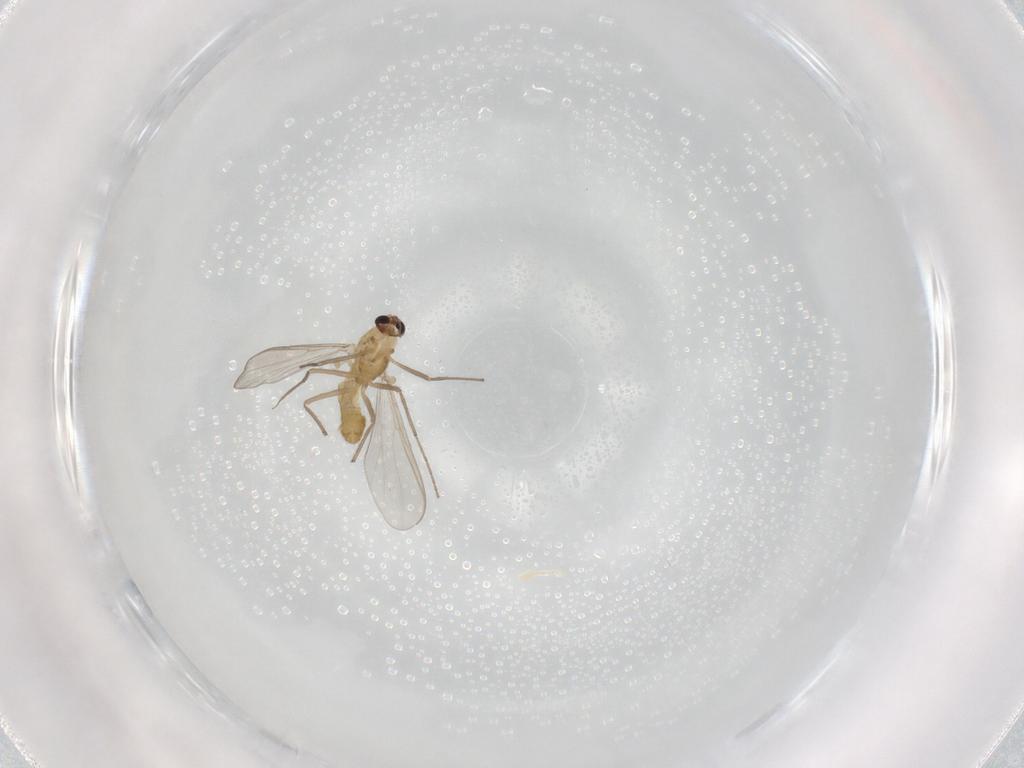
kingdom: Animalia
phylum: Arthropoda
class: Insecta
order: Diptera
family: Chironomidae
